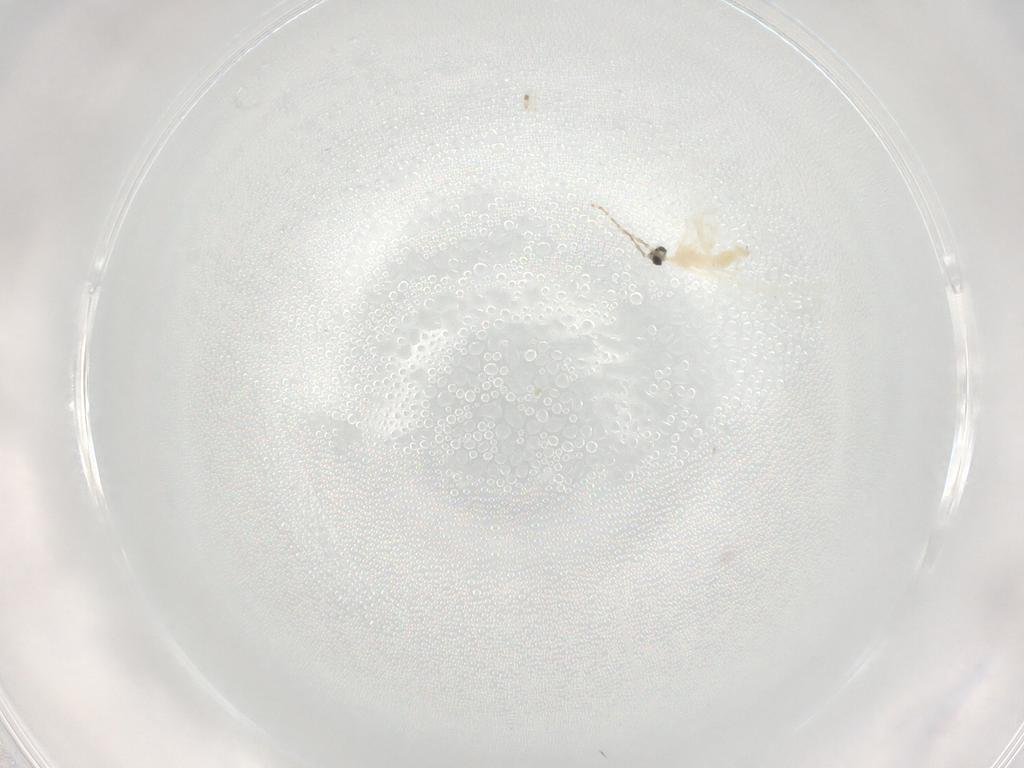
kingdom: Animalia
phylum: Arthropoda
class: Insecta
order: Diptera
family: Cecidomyiidae
